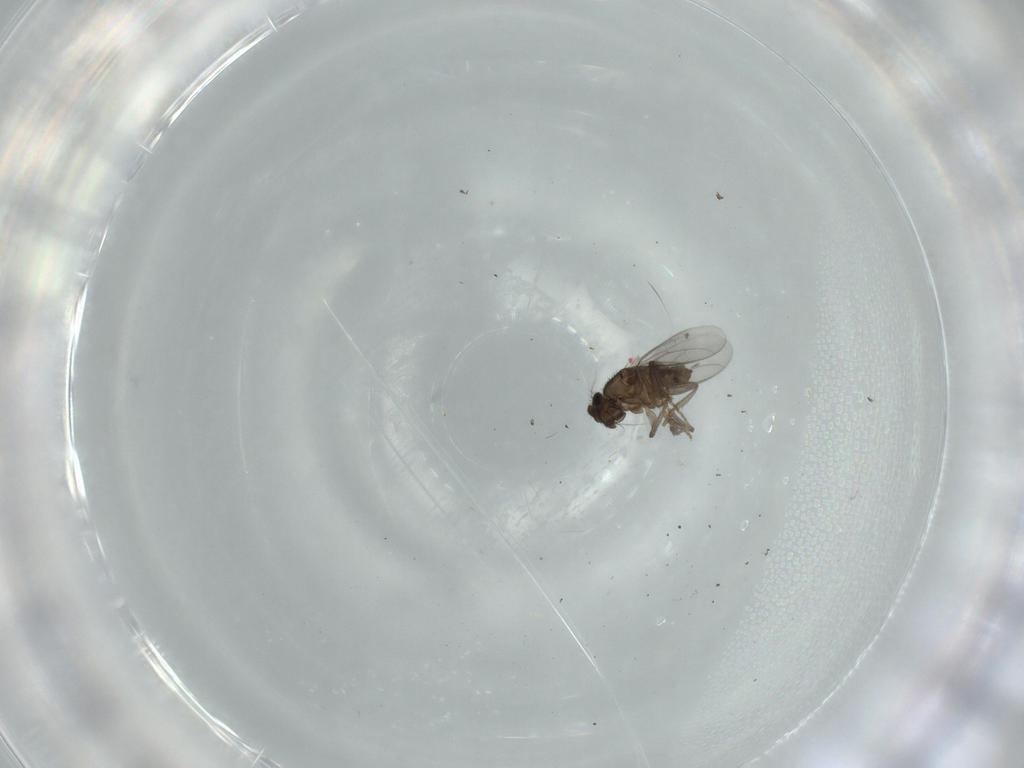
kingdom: Animalia
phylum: Arthropoda
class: Insecta
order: Diptera
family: Sphaeroceridae
